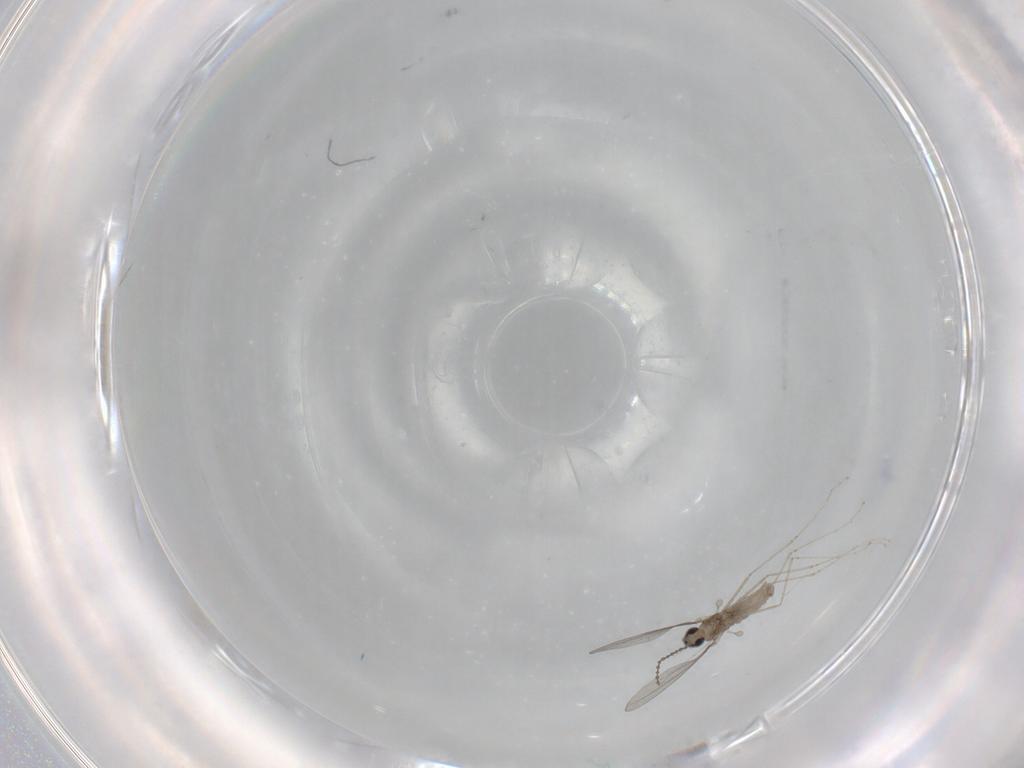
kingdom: Animalia
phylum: Arthropoda
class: Insecta
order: Diptera
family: Cecidomyiidae
